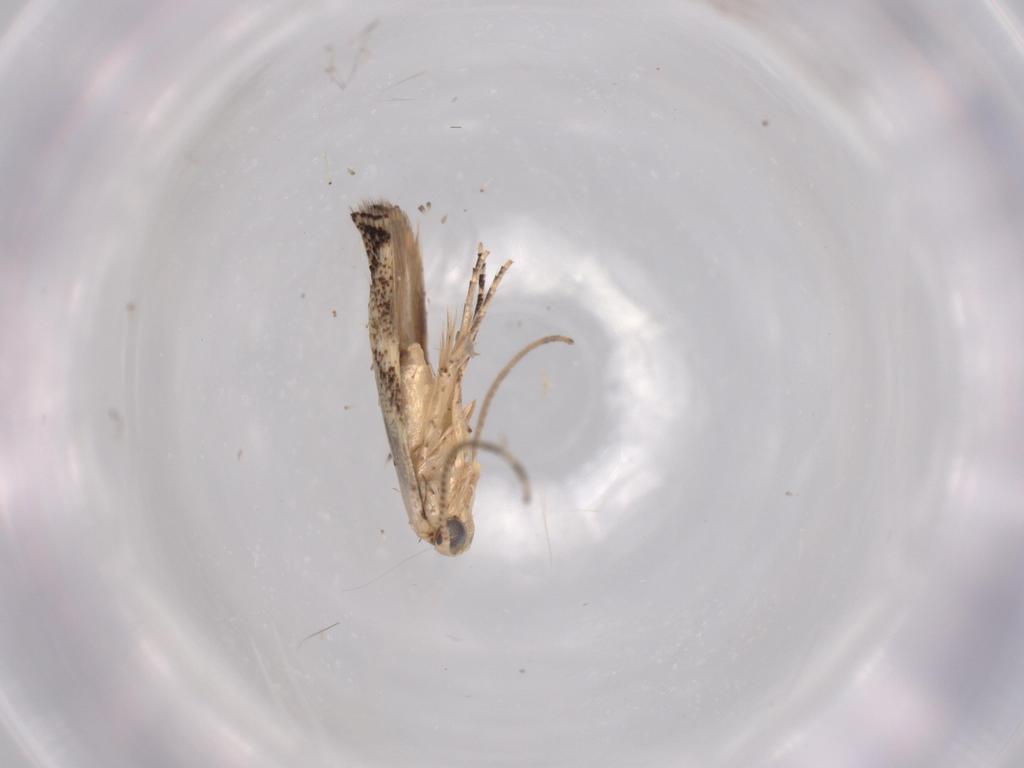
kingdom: Animalia
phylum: Arthropoda
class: Insecta
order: Lepidoptera
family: Bucculatricidae
